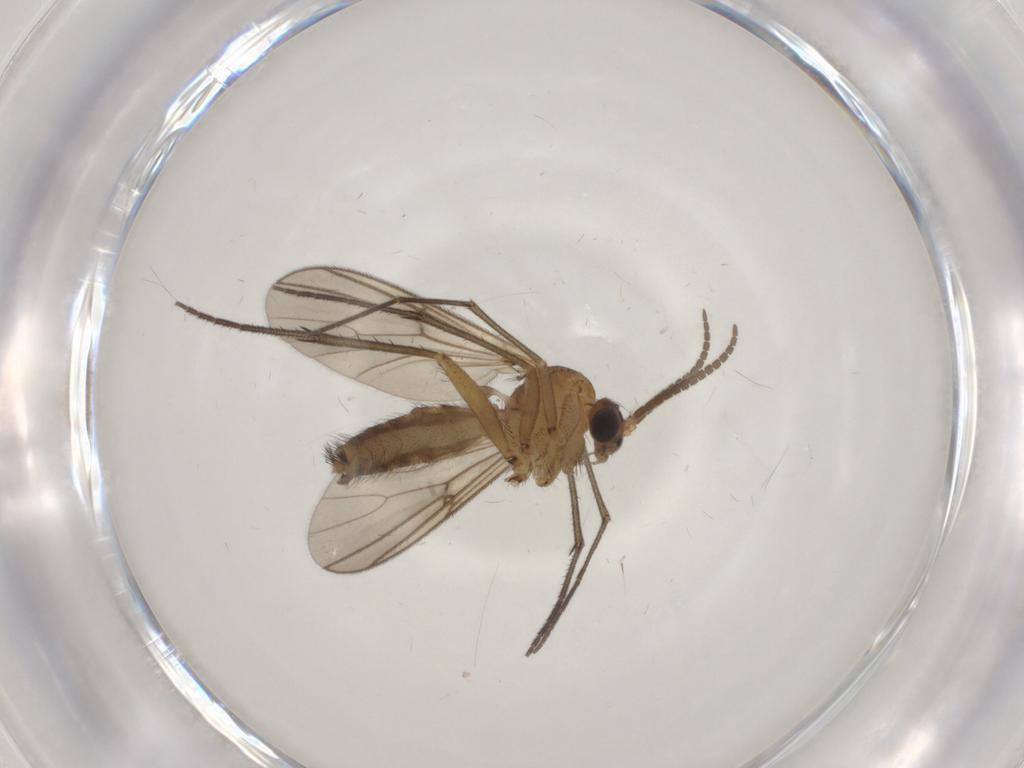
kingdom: Animalia
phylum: Arthropoda
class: Insecta
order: Diptera
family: Mycetophilidae
